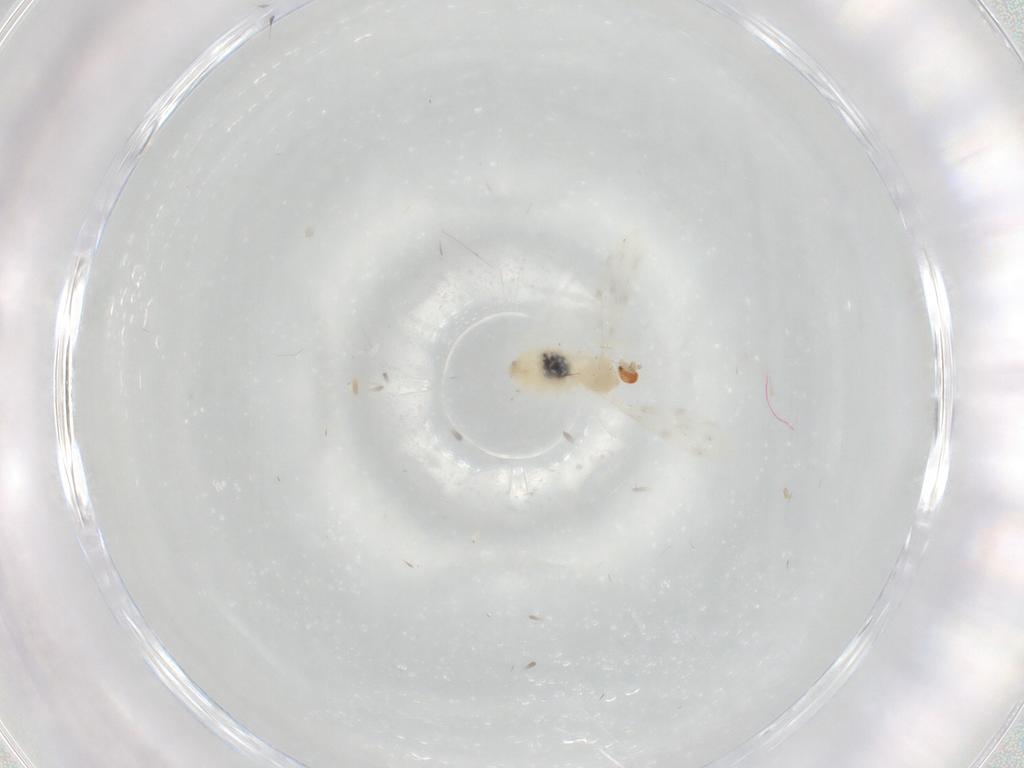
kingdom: Animalia
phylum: Arthropoda
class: Insecta
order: Diptera
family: Cecidomyiidae
